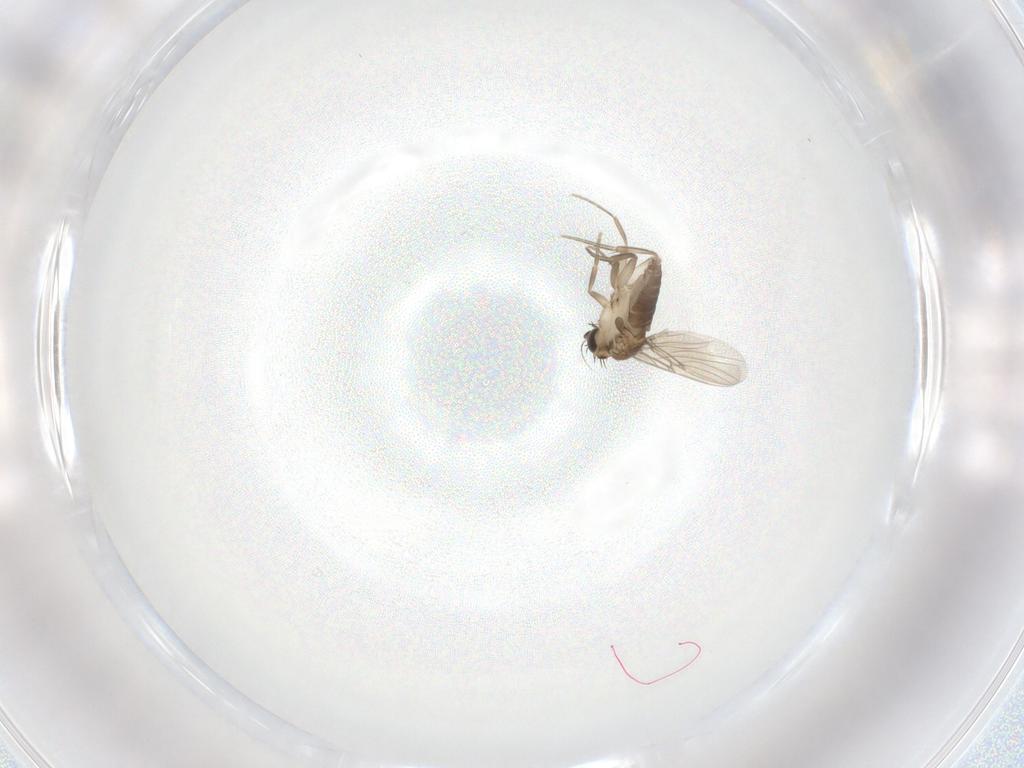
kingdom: Animalia
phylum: Arthropoda
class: Insecta
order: Diptera
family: Phoridae
